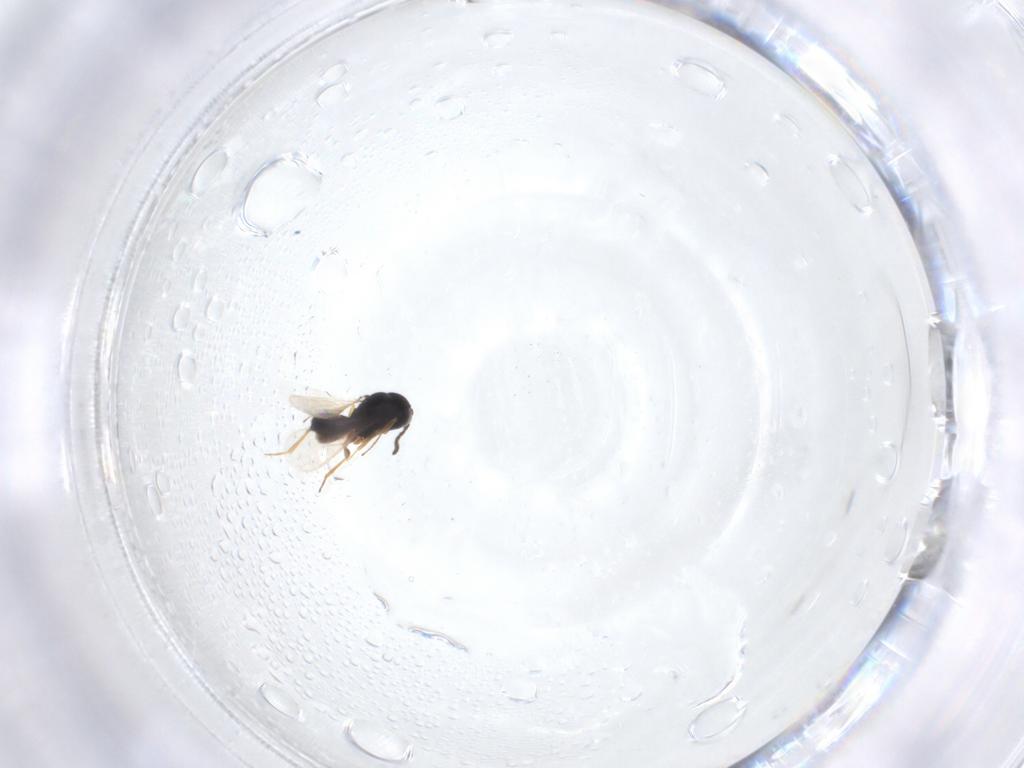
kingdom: Animalia
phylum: Arthropoda
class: Insecta
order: Hymenoptera
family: Scelionidae
